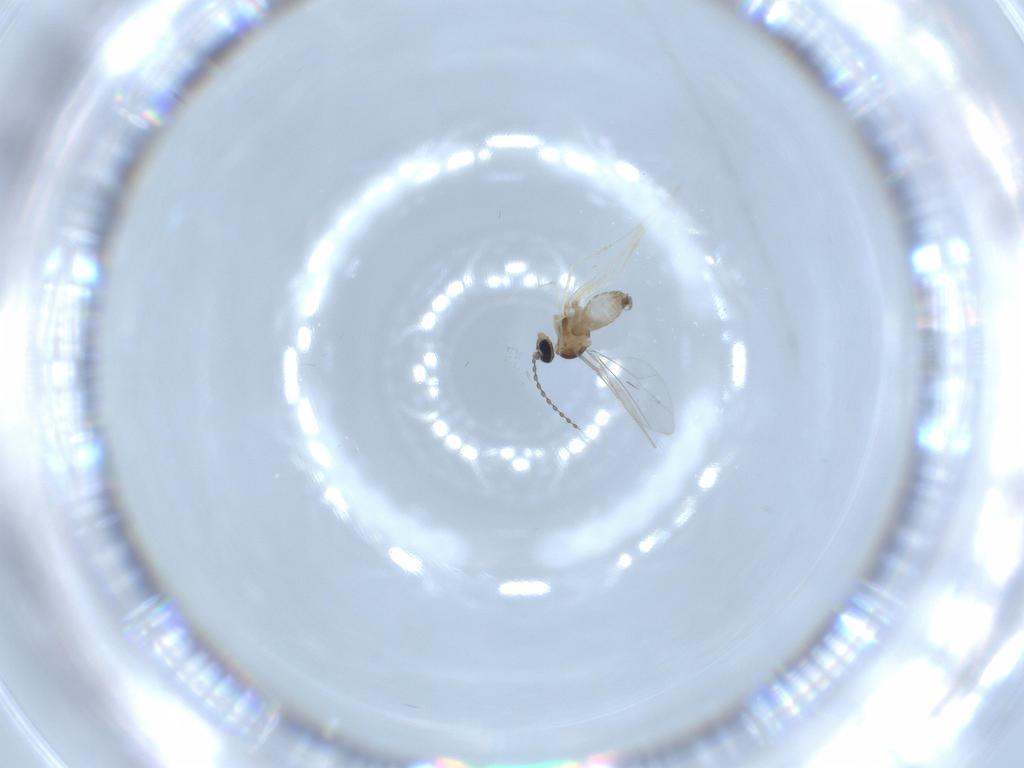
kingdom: Animalia
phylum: Arthropoda
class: Insecta
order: Diptera
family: Cecidomyiidae
